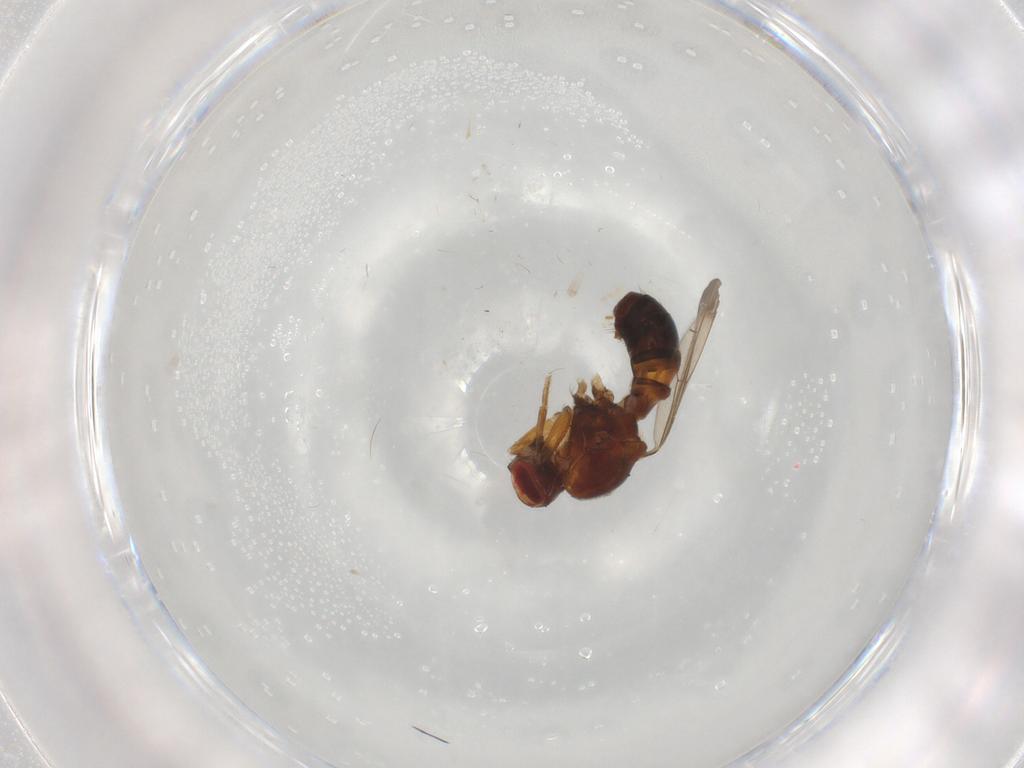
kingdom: Animalia
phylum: Arthropoda
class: Insecta
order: Diptera
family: Drosophilidae
